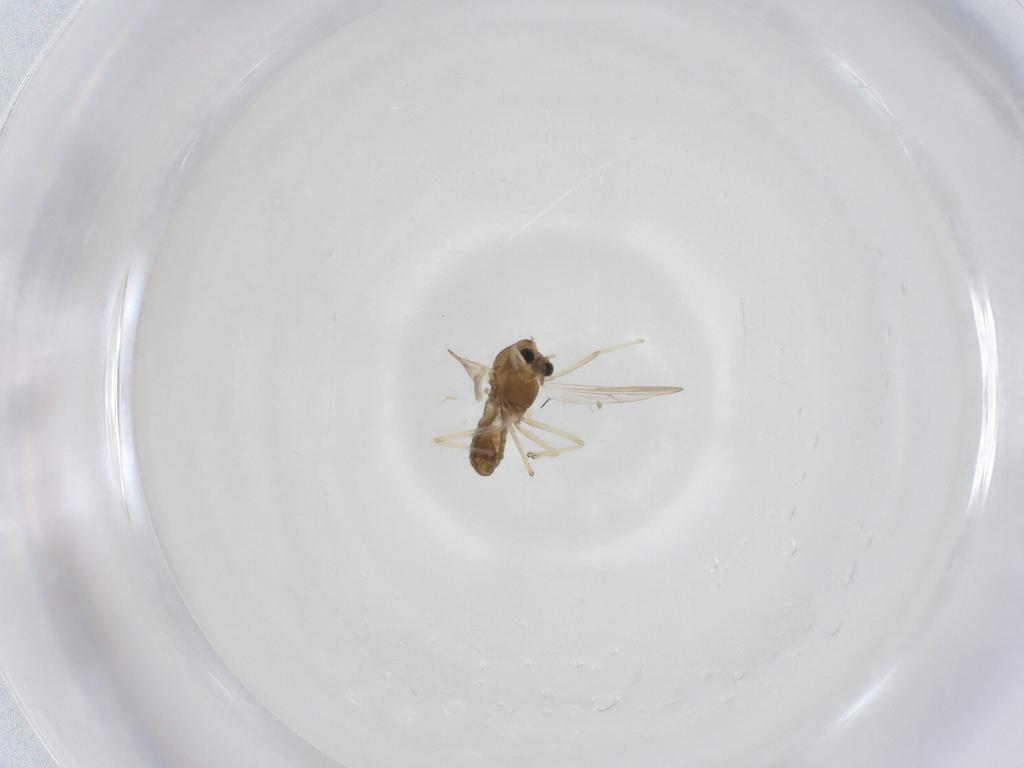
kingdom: Animalia
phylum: Arthropoda
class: Insecta
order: Diptera
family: Chironomidae
